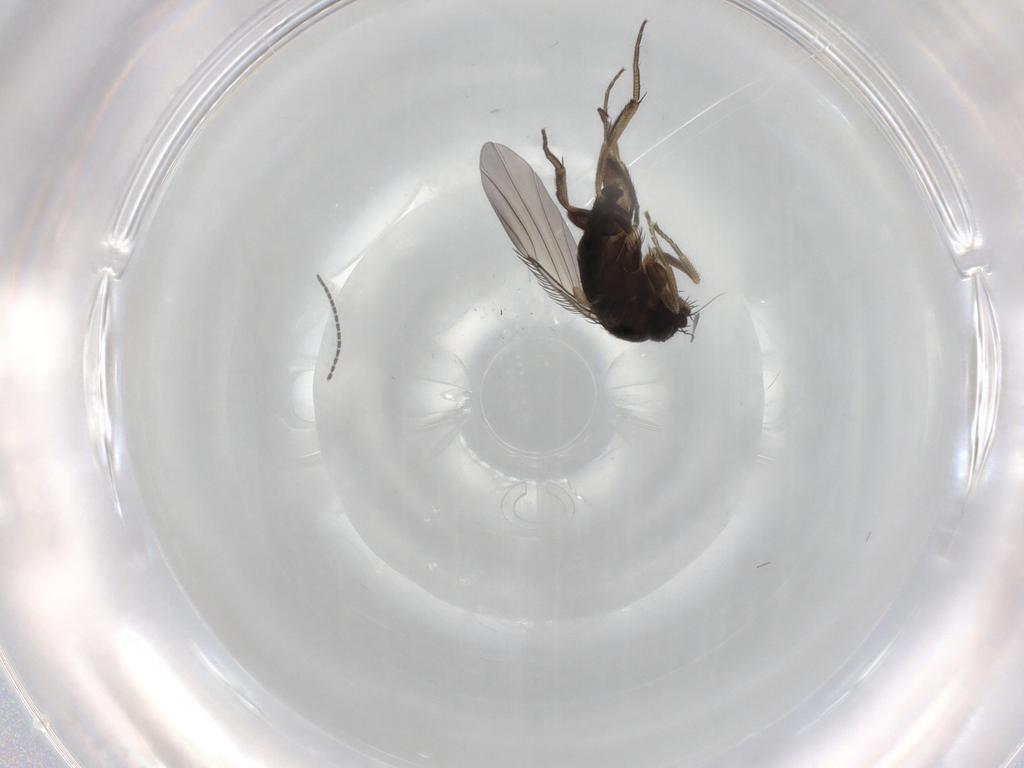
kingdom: Animalia
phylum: Arthropoda
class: Insecta
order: Diptera
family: Phoridae
